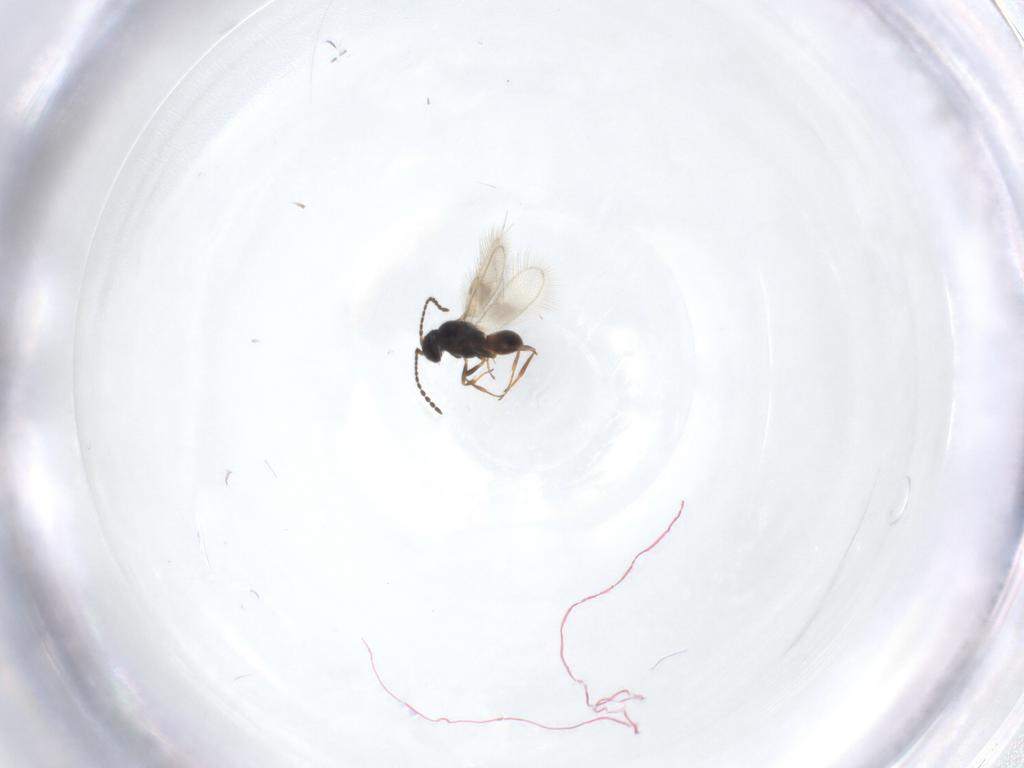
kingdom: Animalia
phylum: Arthropoda
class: Insecta
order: Hymenoptera
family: Scelionidae
